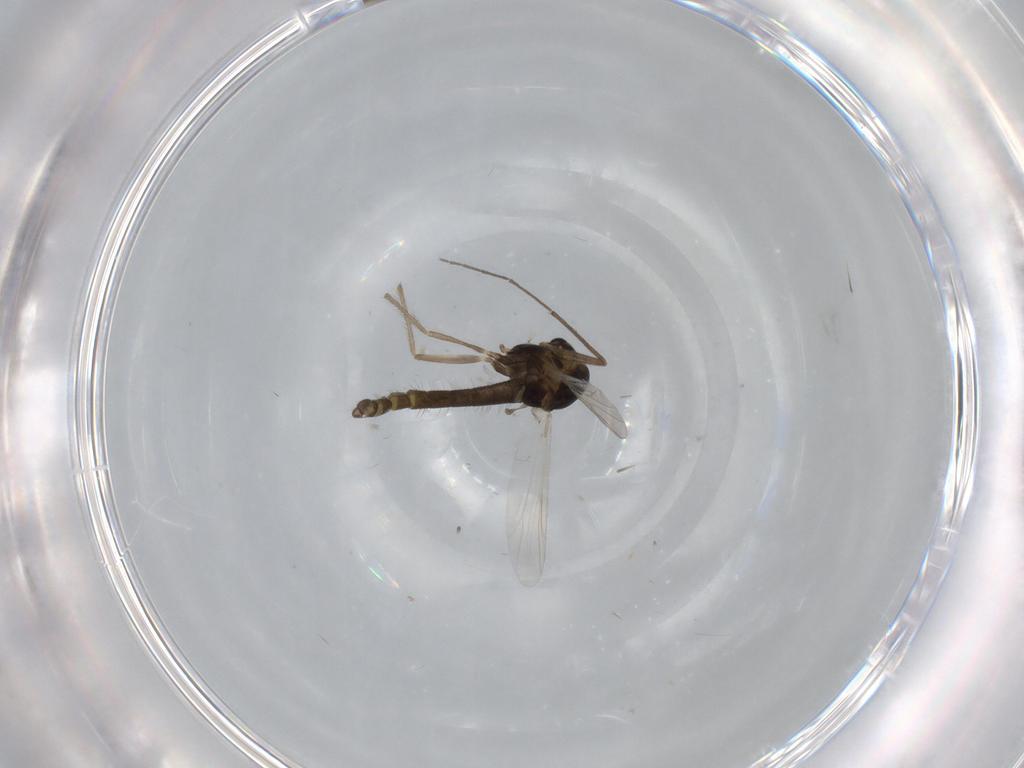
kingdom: Animalia
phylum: Arthropoda
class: Insecta
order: Diptera
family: Chironomidae
